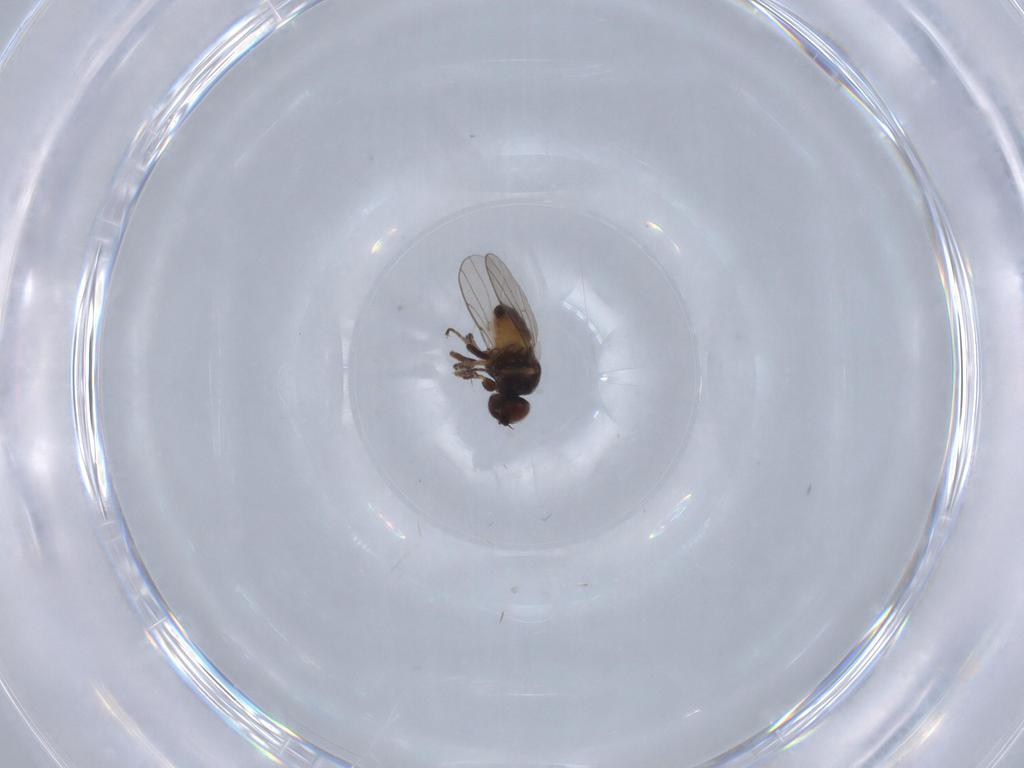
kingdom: Animalia
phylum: Arthropoda
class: Insecta
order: Diptera
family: Chloropidae
